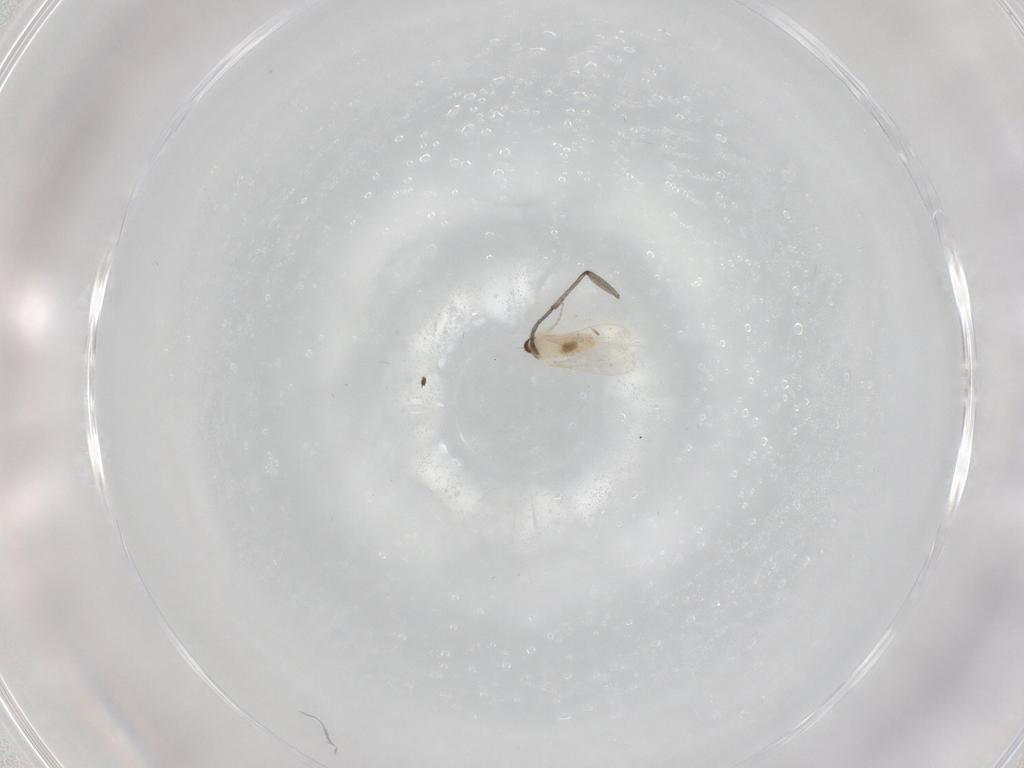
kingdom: Animalia
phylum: Arthropoda
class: Insecta
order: Diptera
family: Sciaridae
